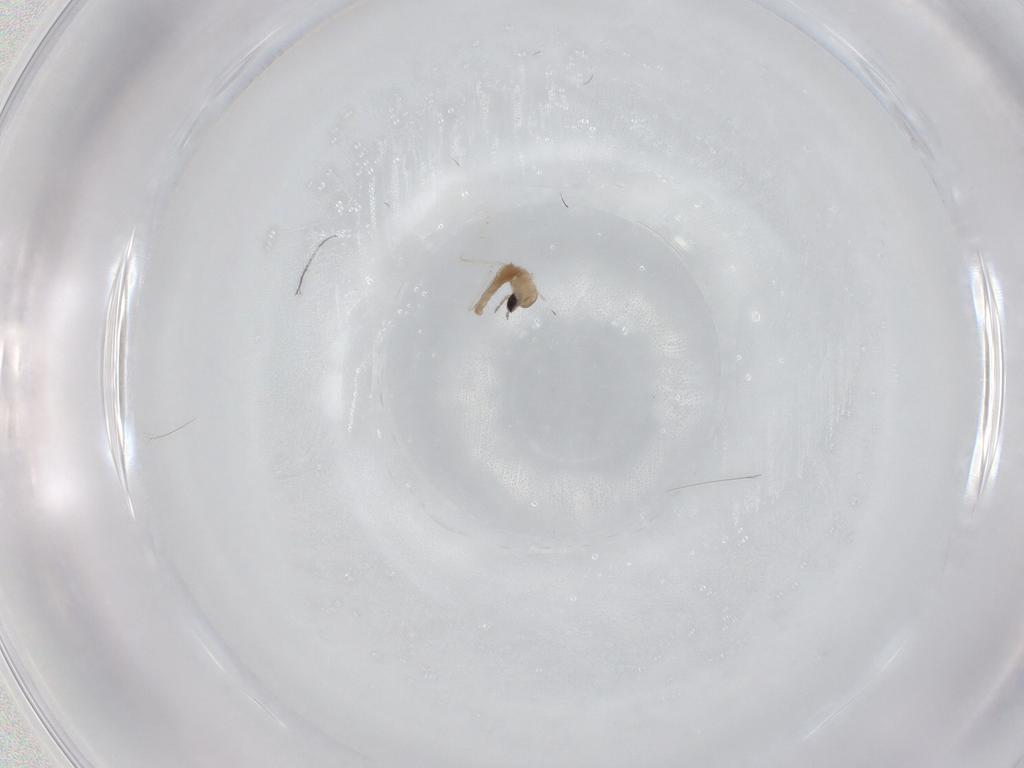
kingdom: Animalia
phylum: Arthropoda
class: Insecta
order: Diptera
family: Cecidomyiidae
